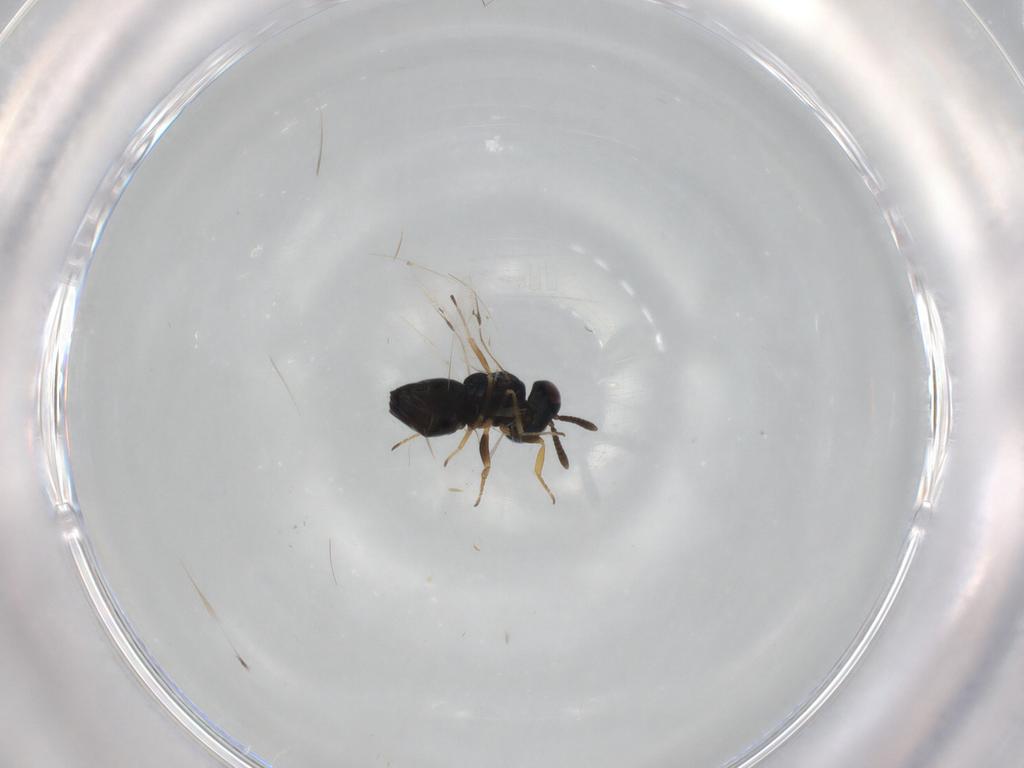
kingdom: Animalia
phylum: Arthropoda
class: Insecta
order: Hymenoptera
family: Pteromalidae
